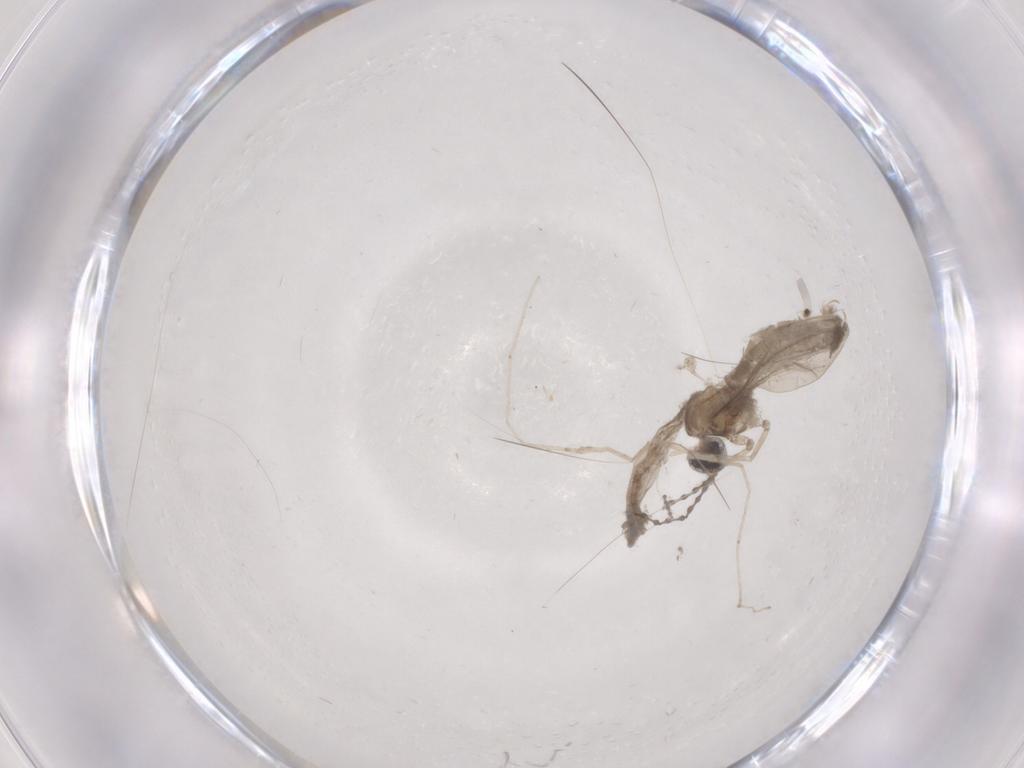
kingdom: Animalia
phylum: Arthropoda
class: Insecta
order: Diptera
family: Cecidomyiidae
